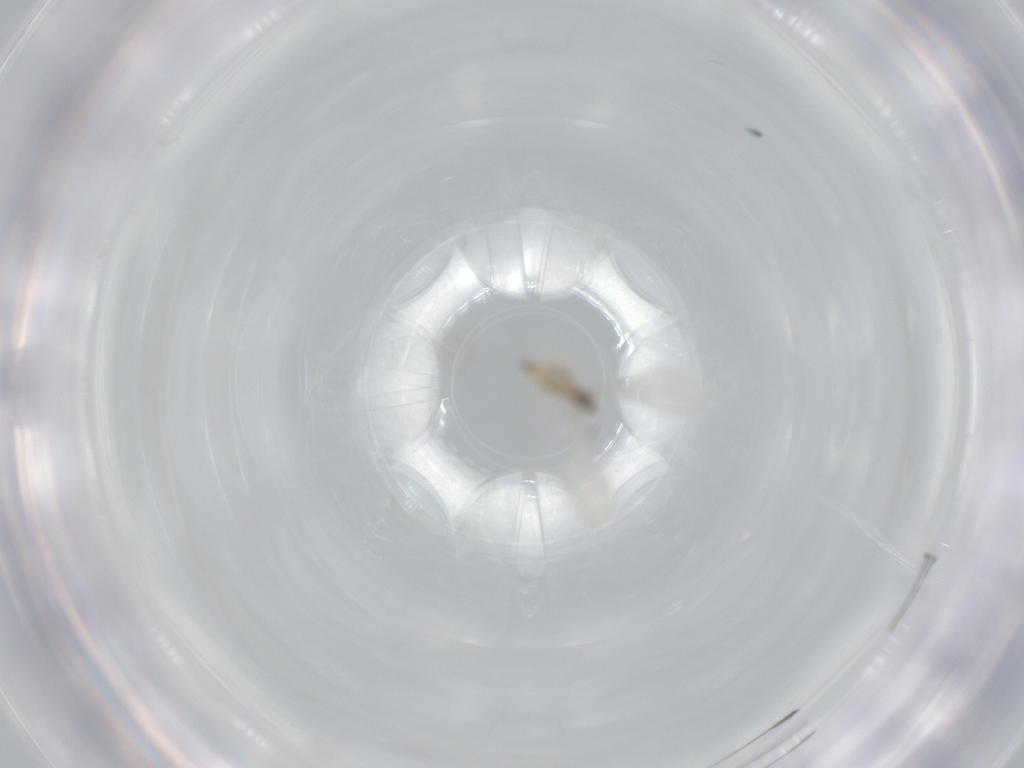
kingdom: Animalia
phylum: Arthropoda
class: Insecta
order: Diptera
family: Cecidomyiidae
